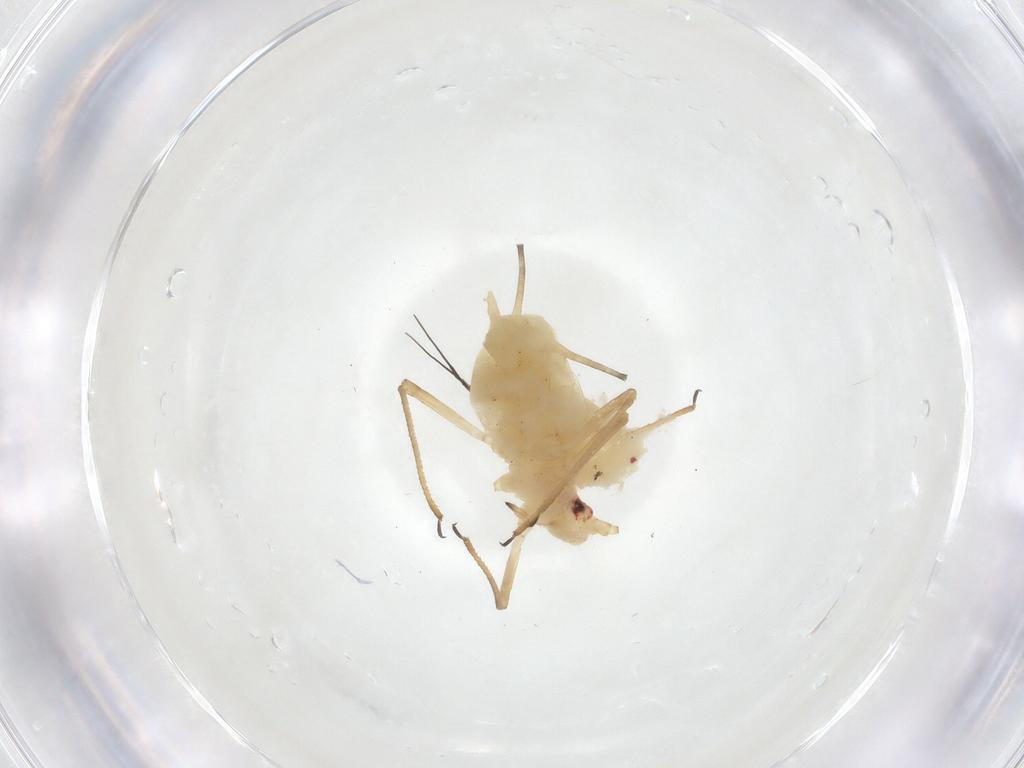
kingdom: Animalia
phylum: Arthropoda
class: Insecta
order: Hemiptera
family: Aphididae
